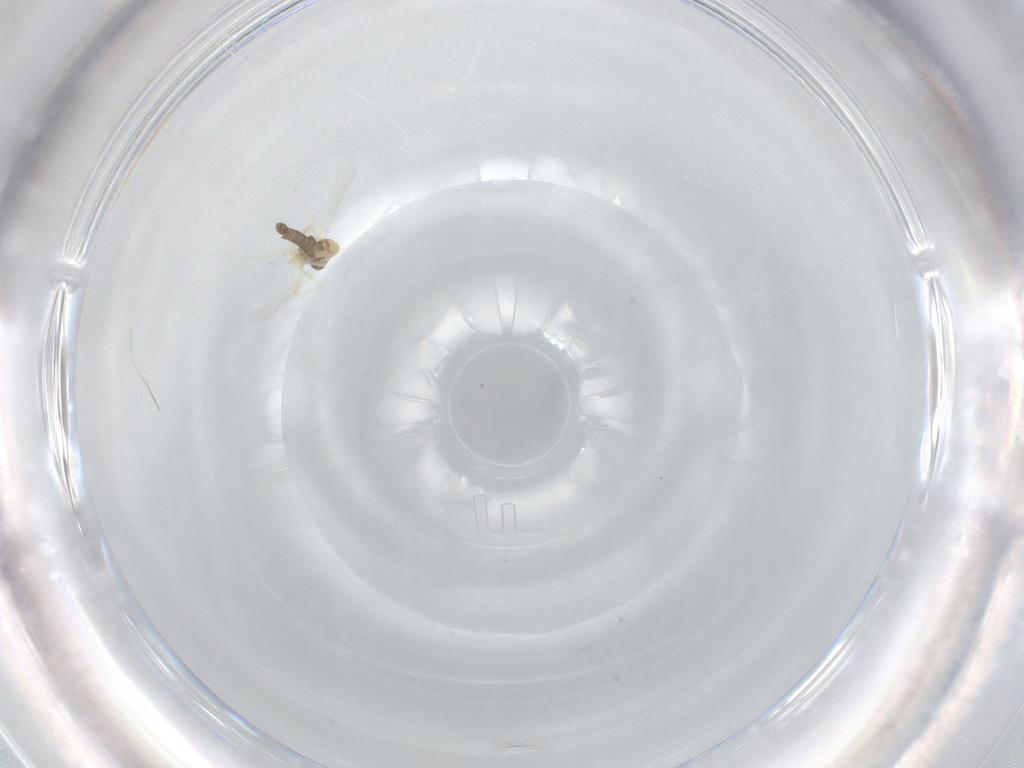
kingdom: Animalia
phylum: Arthropoda
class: Insecta
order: Diptera
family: Chironomidae
